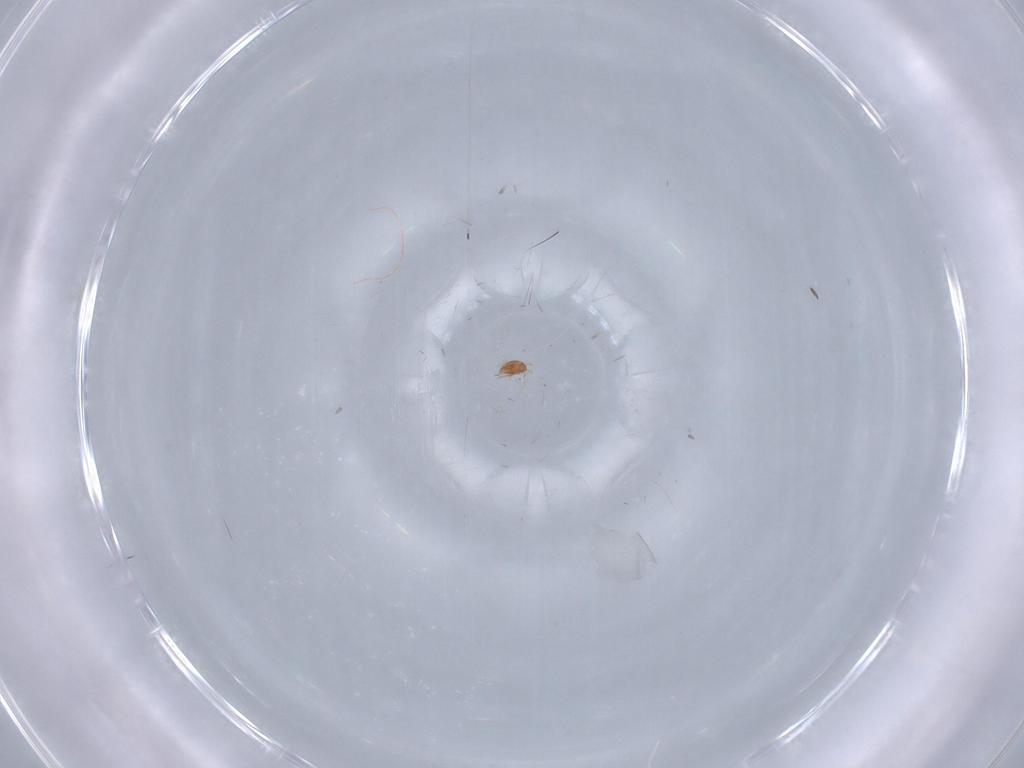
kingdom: Animalia
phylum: Arthropoda
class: Arachnida
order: Trombidiformes
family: Neopygmephoridae
